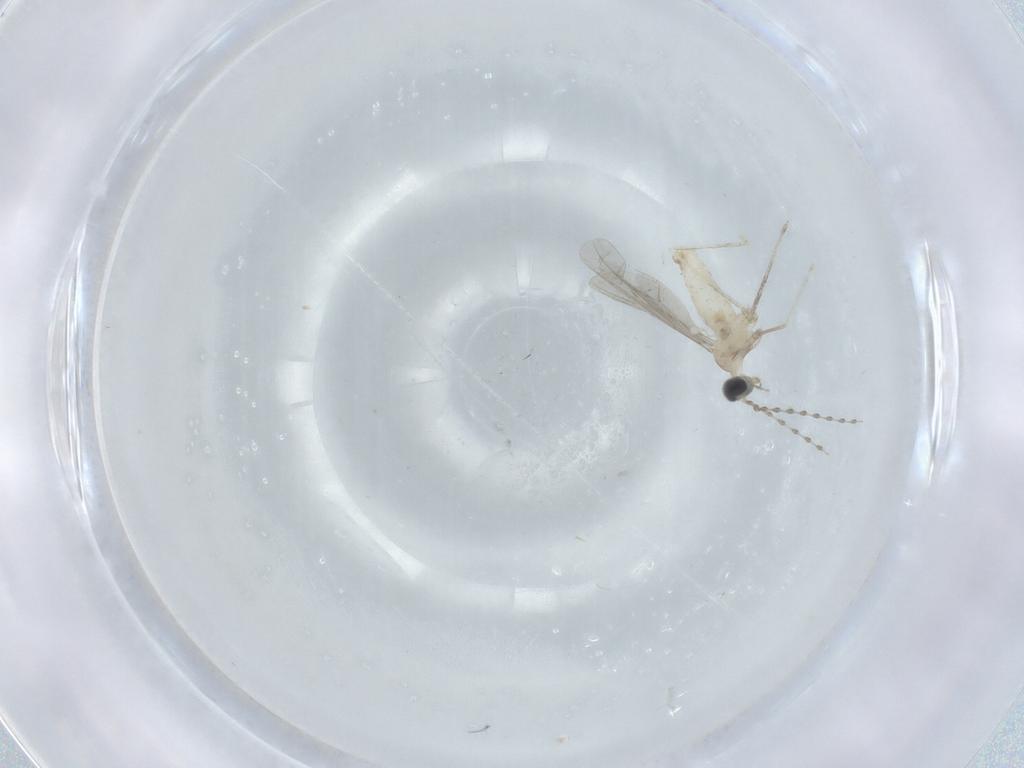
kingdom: Animalia
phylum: Arthropoda
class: Insecta
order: Diptera
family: Cecidomyiidae
